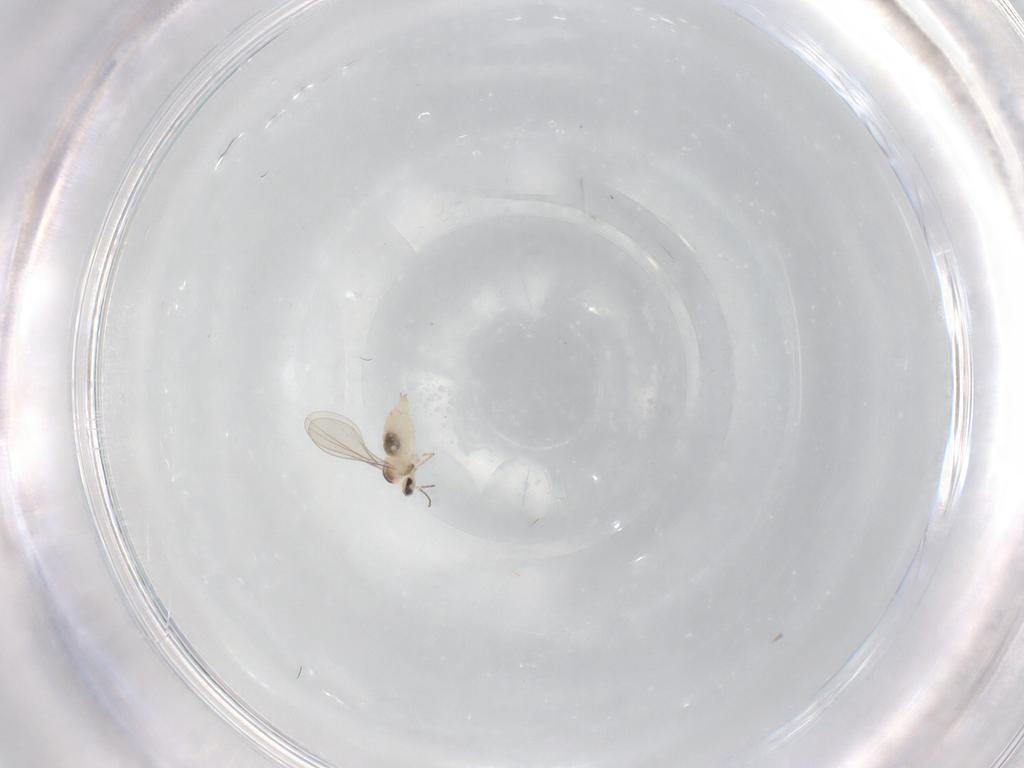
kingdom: Animalia
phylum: Arthropoda
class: Insecta
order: Diptera
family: Cecidomyiidae
